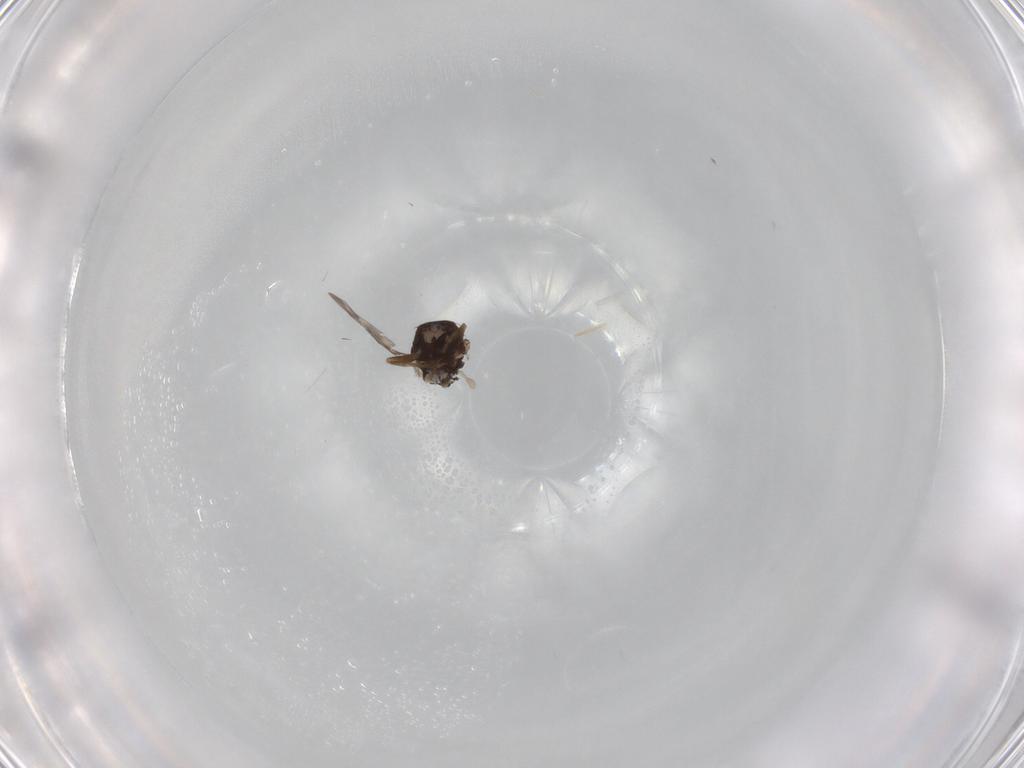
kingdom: Animalia
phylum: Arthropoda
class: Insecta
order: Diptera
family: Sphaeroceridae
